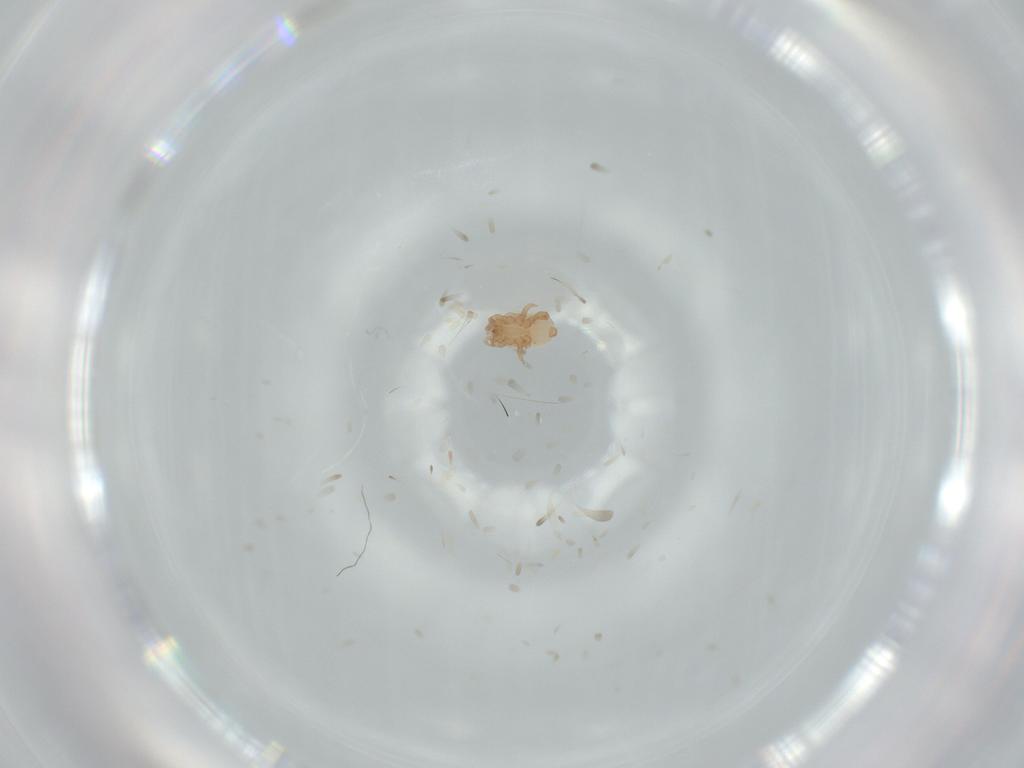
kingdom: Animalia
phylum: Arthropoda
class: Arachnida
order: Mesostigmata
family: Halolaelapidae
